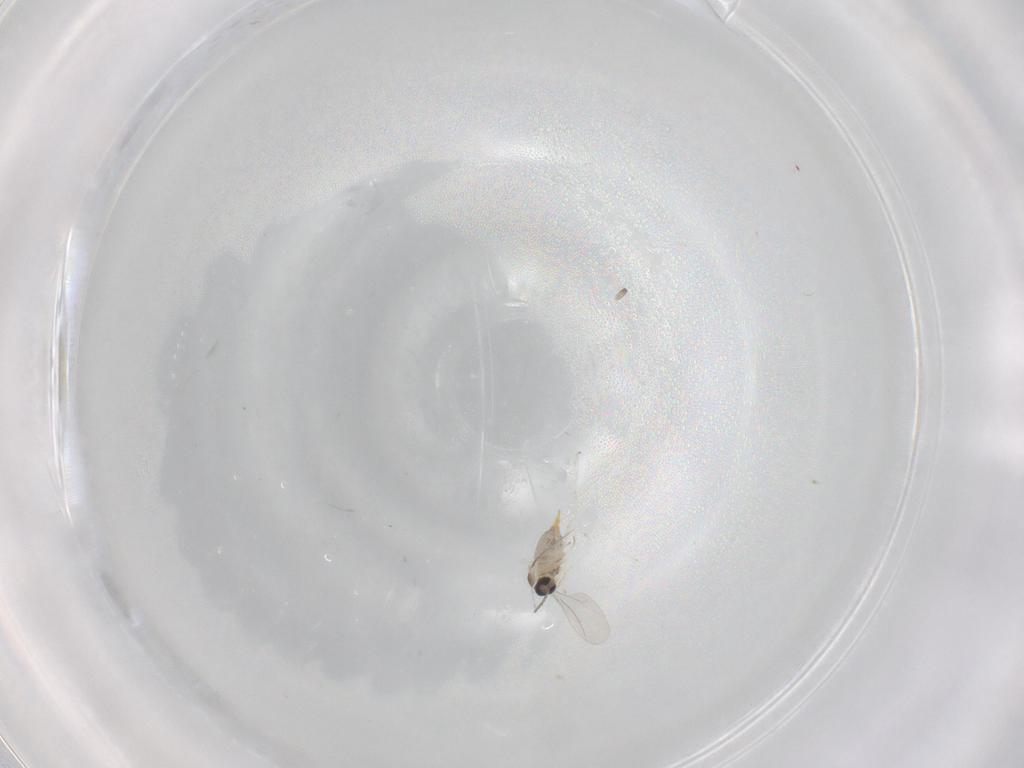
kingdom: Animalia
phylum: Arthropoda
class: Insecta
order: Diptera
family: Cecidomyiidae
